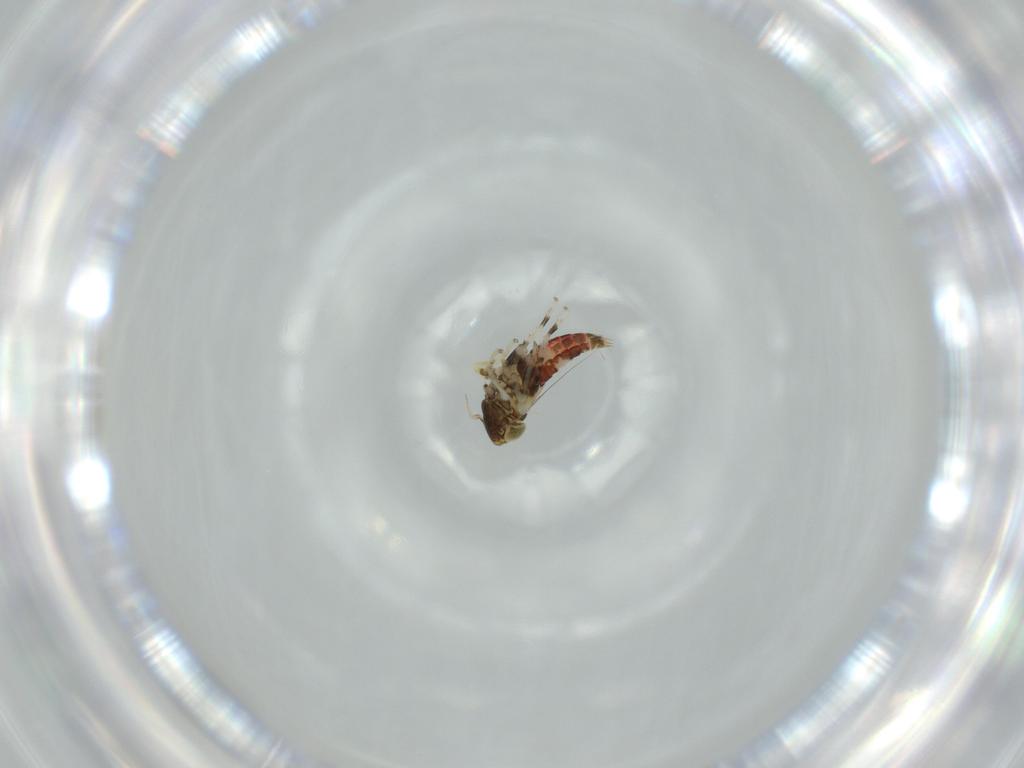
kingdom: Animalia
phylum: Arthropoda
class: Insecta
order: Hemiptera
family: Cicadellidae
